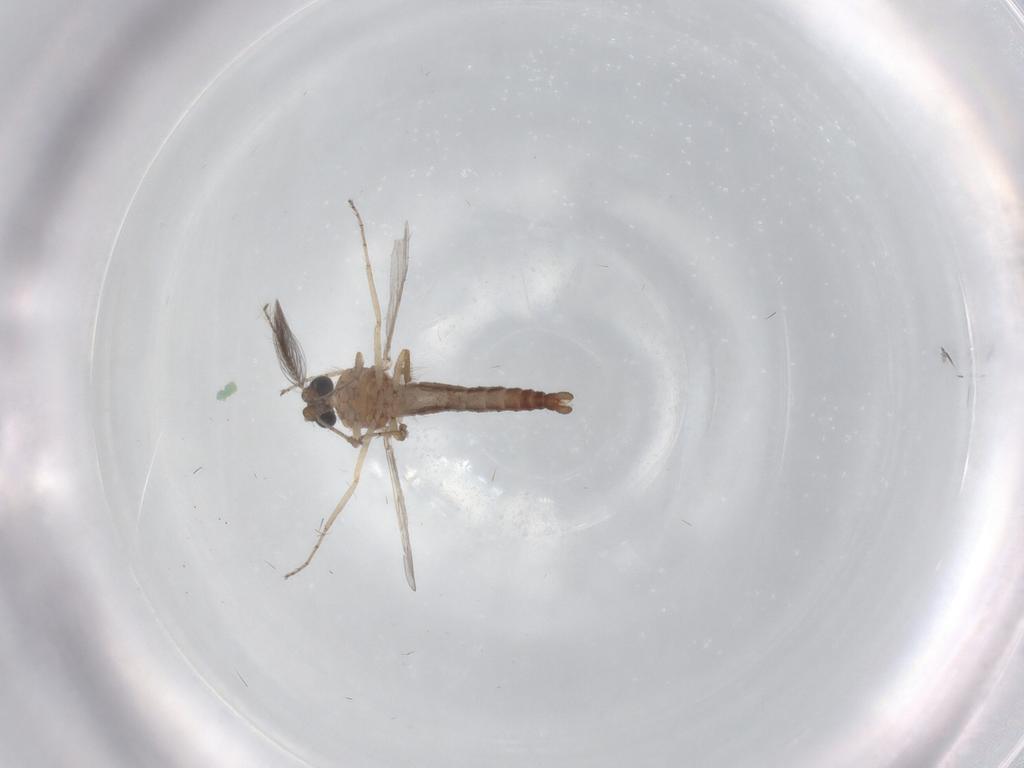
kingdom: Animalia
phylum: Arthropoda
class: Insecta
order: Diptera
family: Ceratopogonidae
